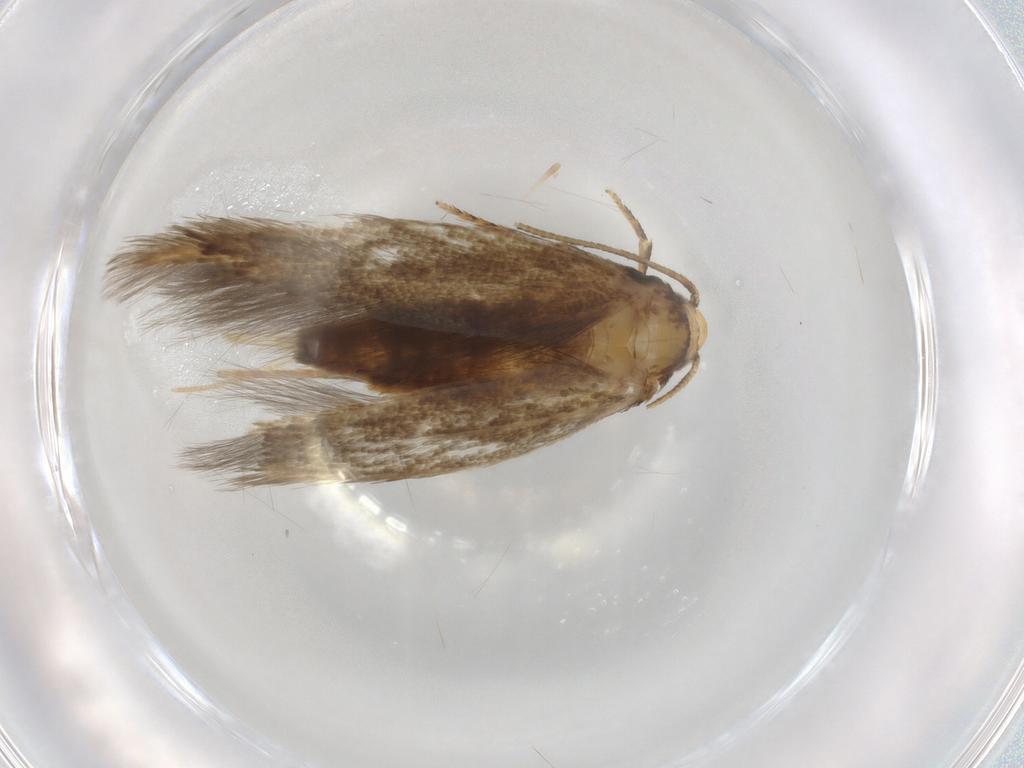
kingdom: Animalia
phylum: Arthropoda
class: Insecta
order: Lepidoptera
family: Tineidae
